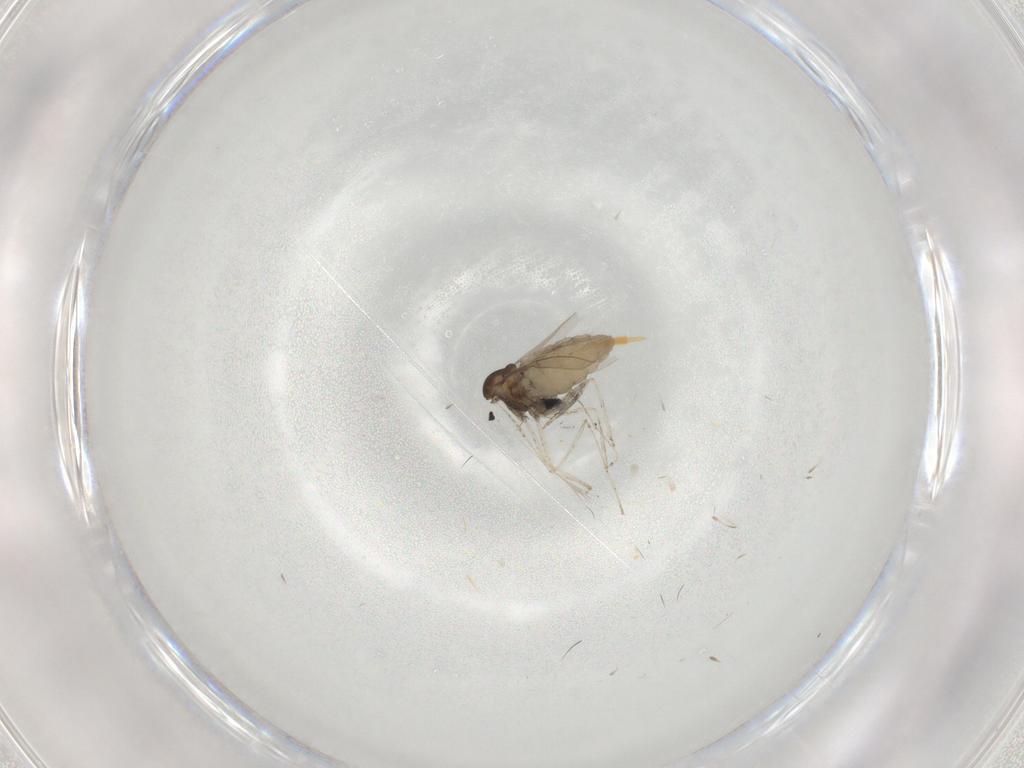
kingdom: Animalia
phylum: Arthropoda
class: Insecta
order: Diptera
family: Cecidomyiidae
